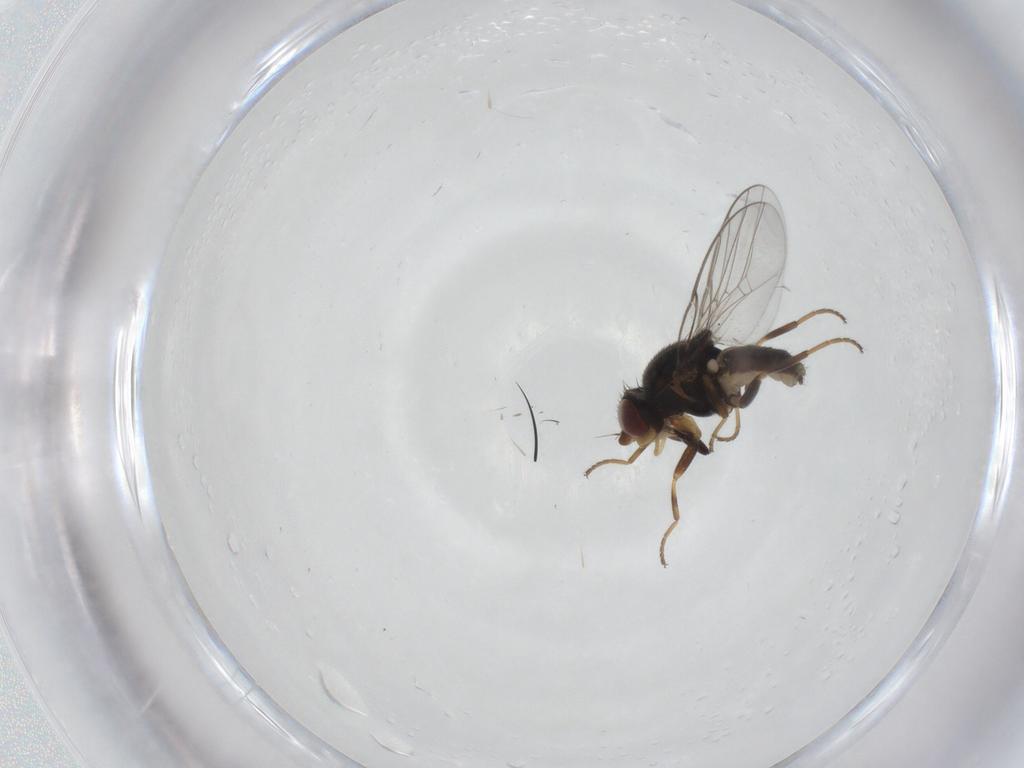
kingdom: Animalia
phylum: Arthropoda
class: Insecta
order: Diptera
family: Chloropidae
